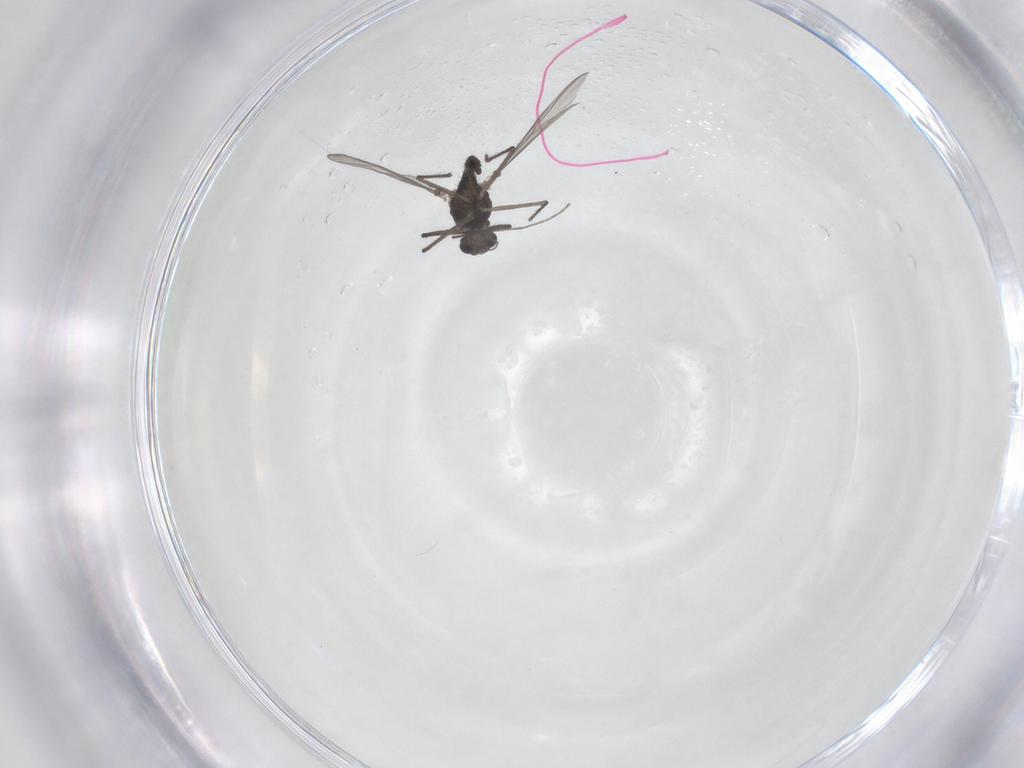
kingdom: Animalia
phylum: Arthropoda
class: Insecta
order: Diptera
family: Chironomidae
